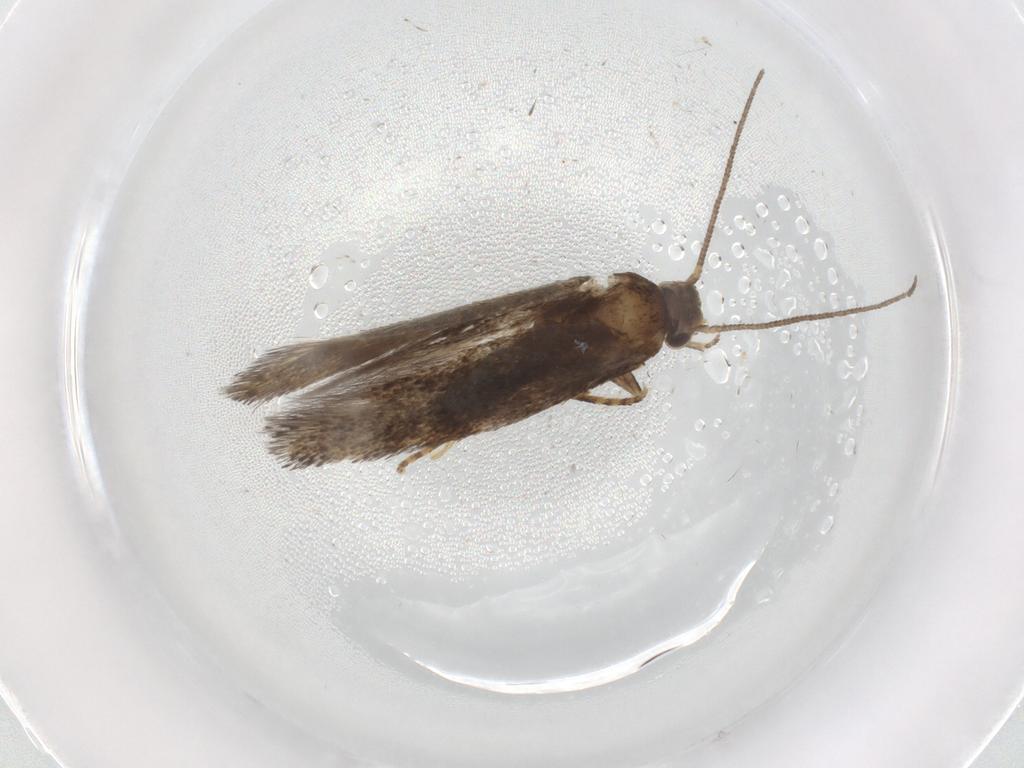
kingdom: Animalia
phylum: Arthropoda
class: Insecta
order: Lepidoptera
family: Elachistidae
